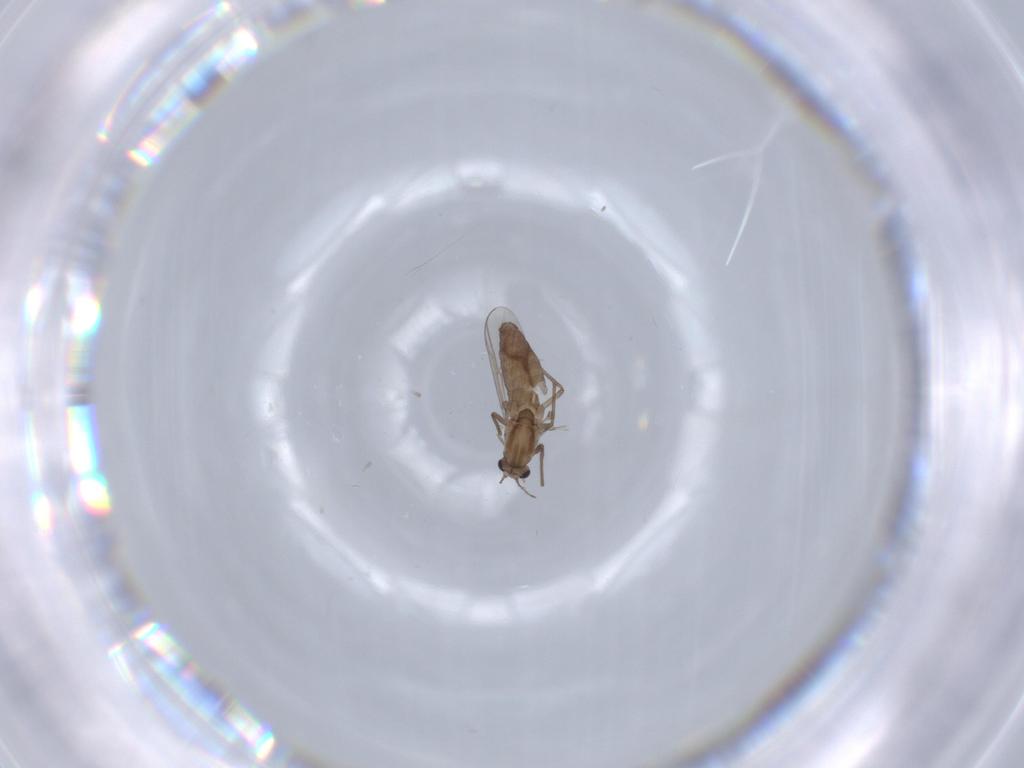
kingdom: Animalia
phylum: Arthropoda
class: Insecta
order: Diptera
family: Chironomidae
